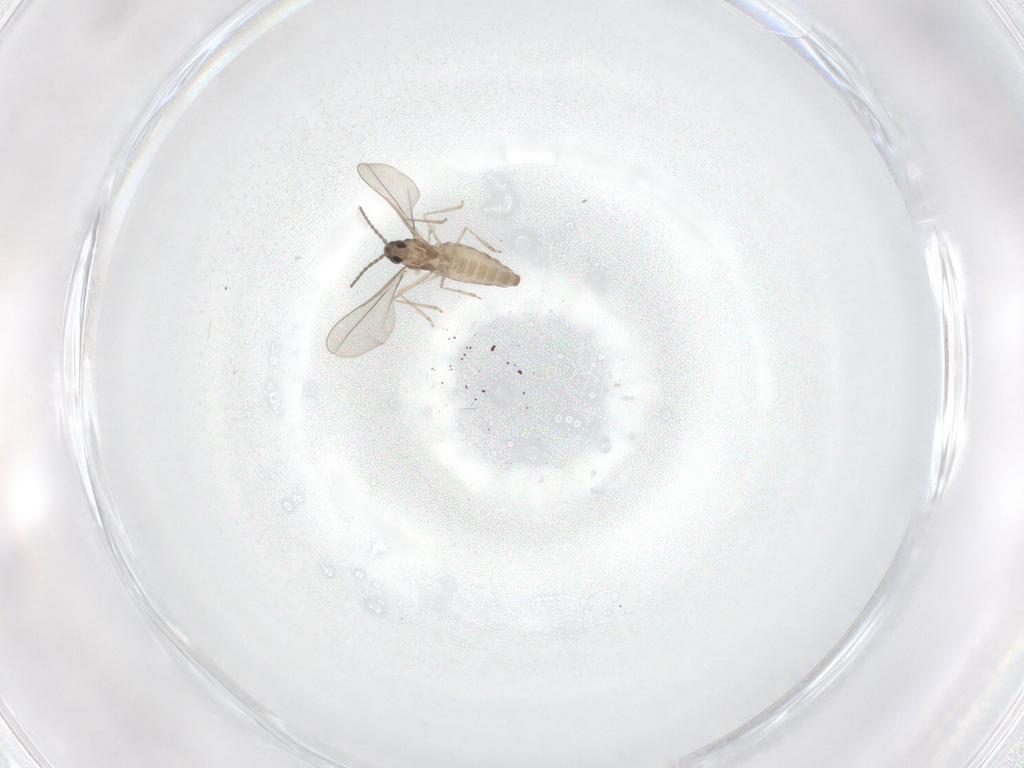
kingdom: Animalia
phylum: Arthropoda
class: Insecta
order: Diptera
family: Cecidomyiidae
